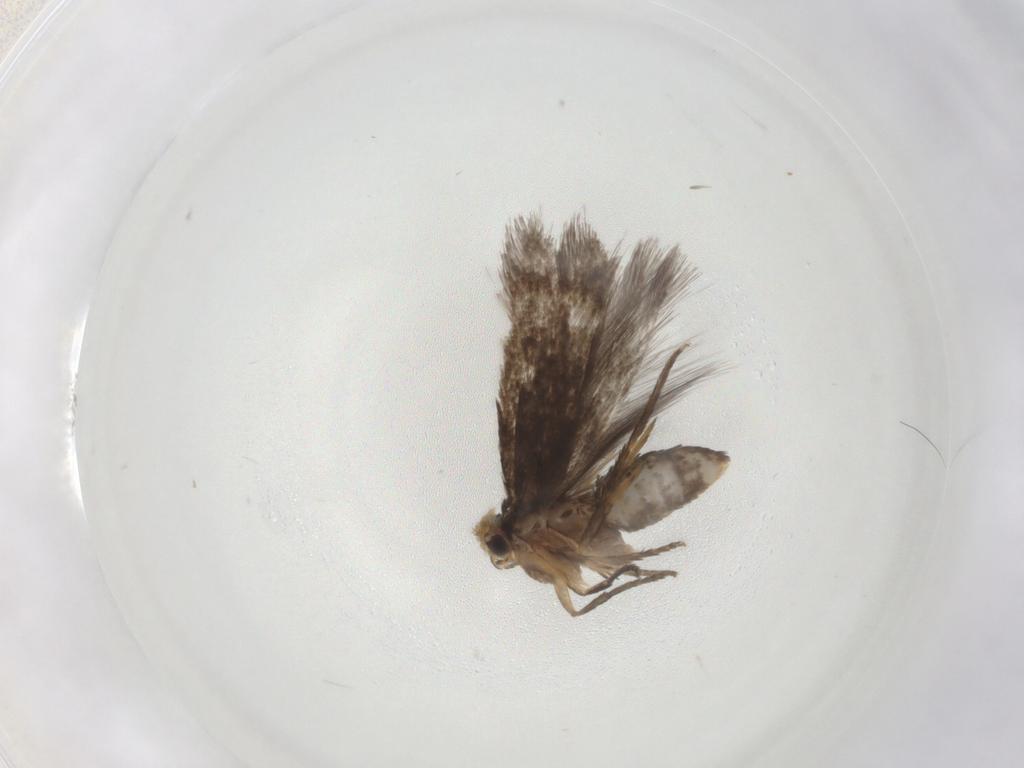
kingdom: Animalia
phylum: Arthropoda
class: Insecta
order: Lepidoptera
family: Nepticulidae
